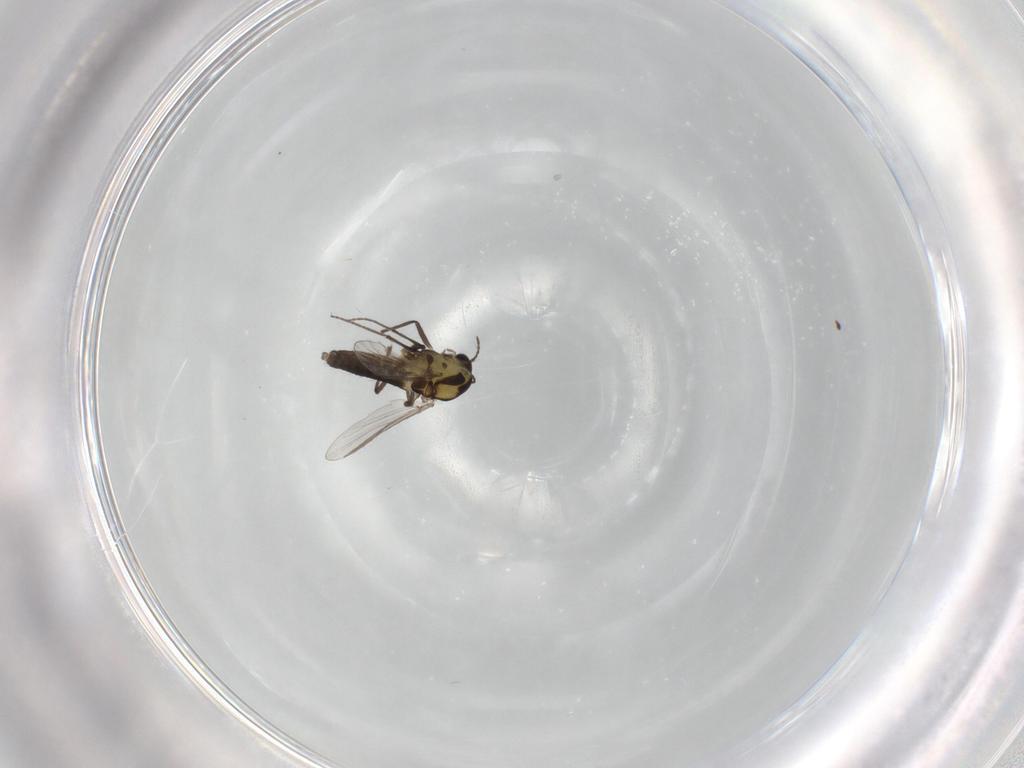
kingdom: Animalia
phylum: Arthropoda
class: Insecta
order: Diptera
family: Chironomidae
